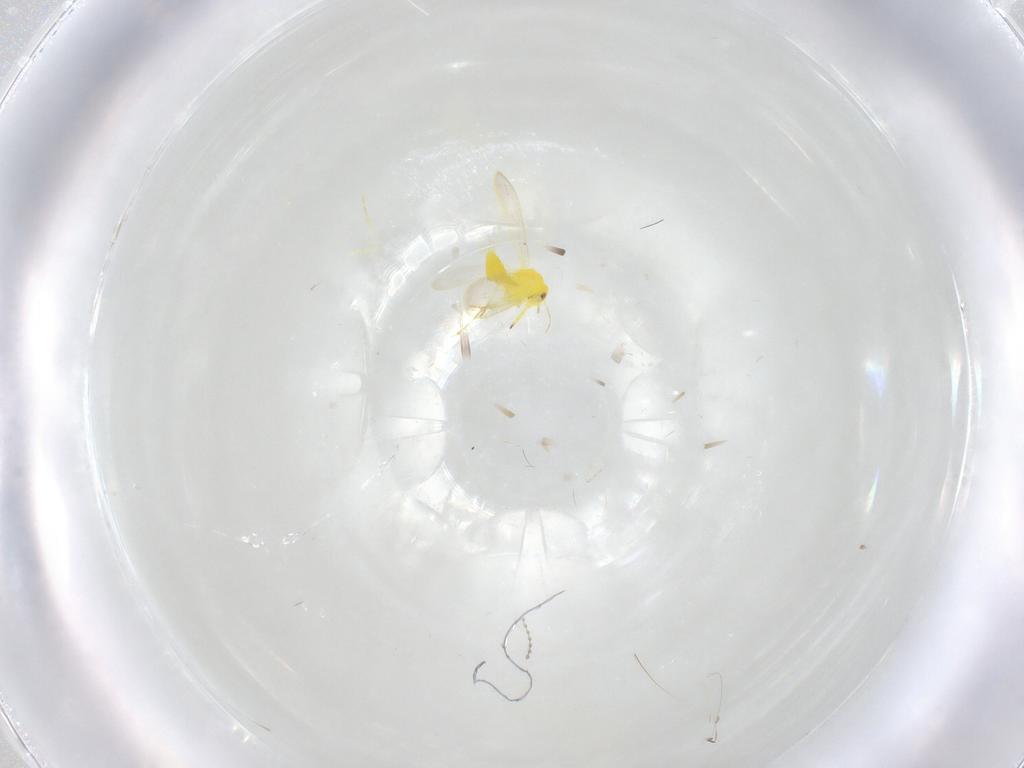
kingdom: Animalia
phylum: Arthropoda
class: Insecta
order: Hemiptera
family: Aleyrodidae
